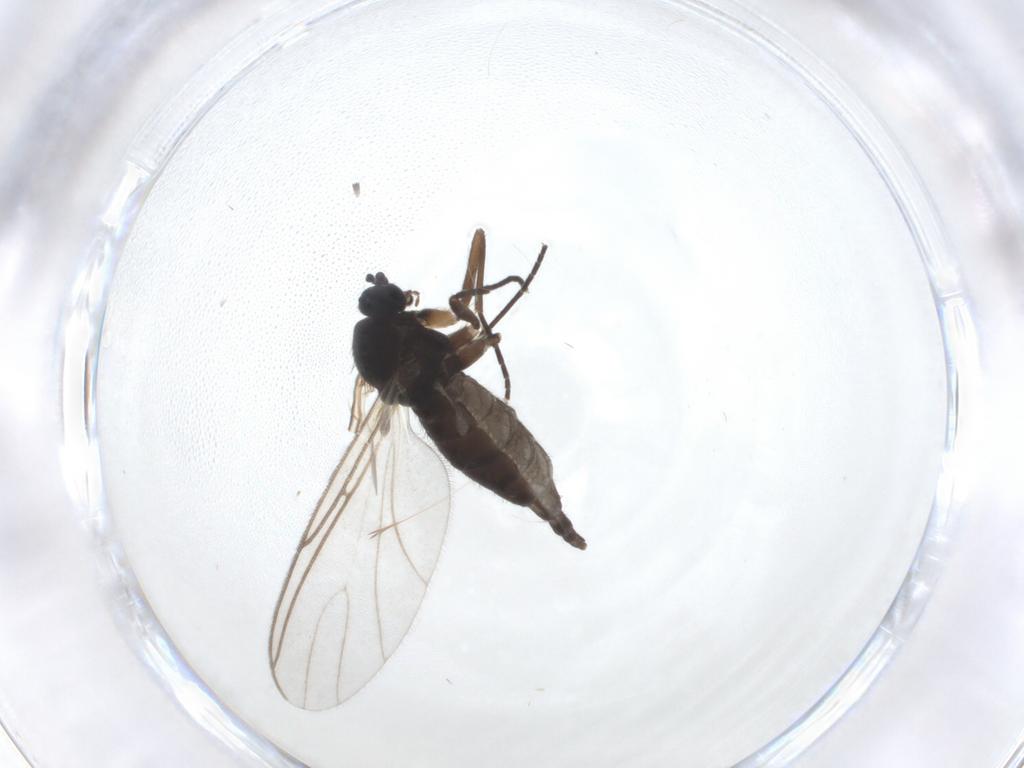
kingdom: Animalia
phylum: Arthropoda
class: Insecta
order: Diptera
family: Sciaridae
